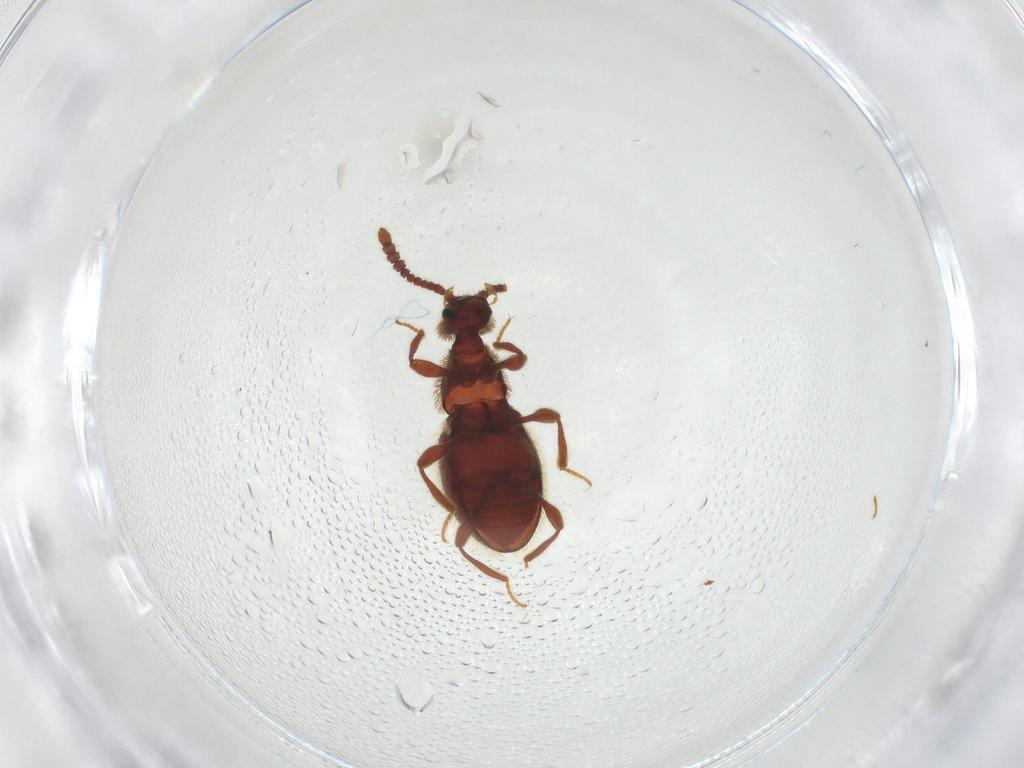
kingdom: Animalia
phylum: Arthropoda
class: Insecta
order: Coleoptera
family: Staphylinidae
